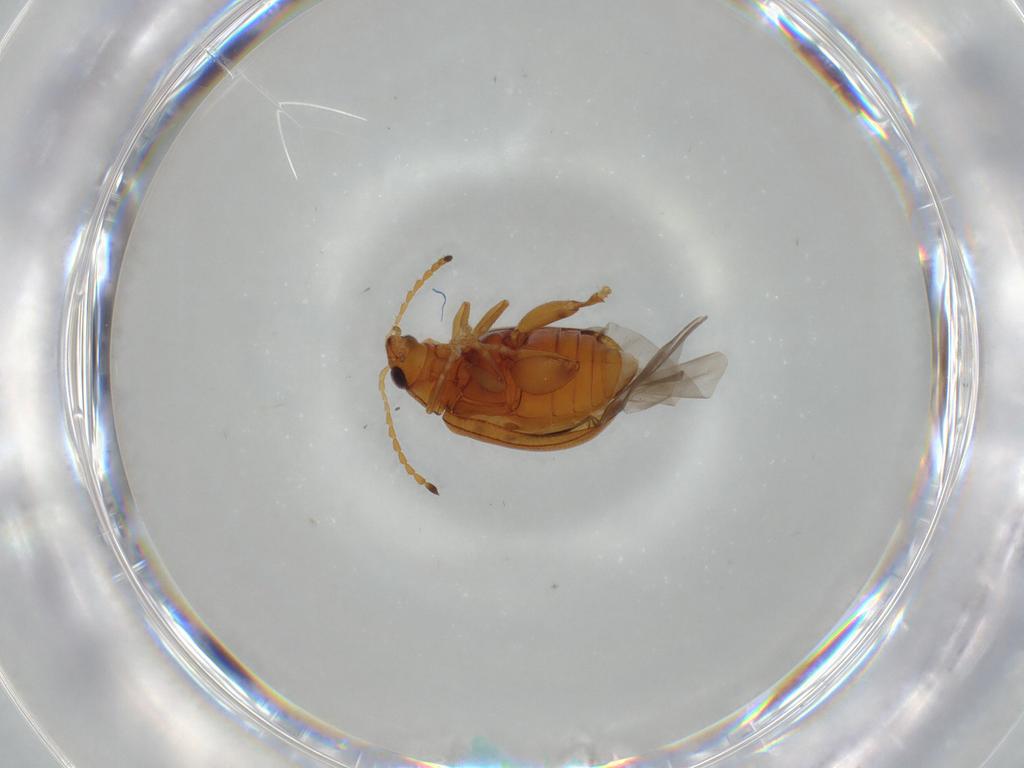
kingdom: Animalia
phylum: Arthropoda
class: Insecta
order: Coleoptera
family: Chrysomelidae
